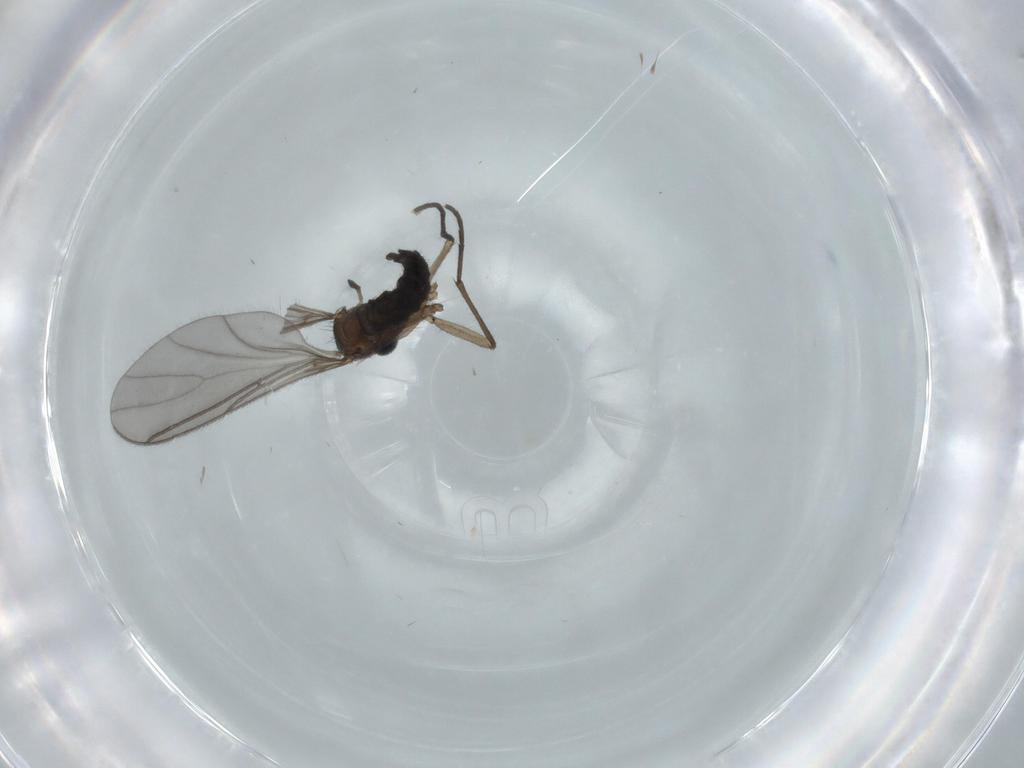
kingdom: Animalia
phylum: Arthropoda
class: Insecta
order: Diptera
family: Sciaridae
